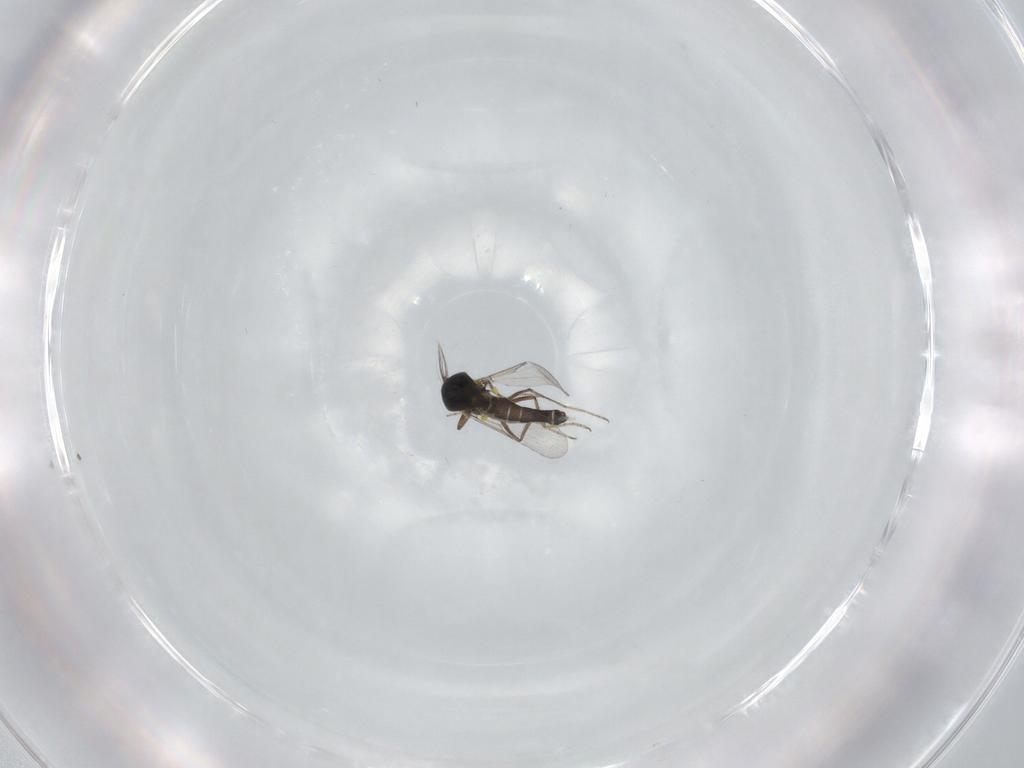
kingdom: Animalia
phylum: Arthropoda
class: Insecta
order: Diptera
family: Ceratopogonidae
